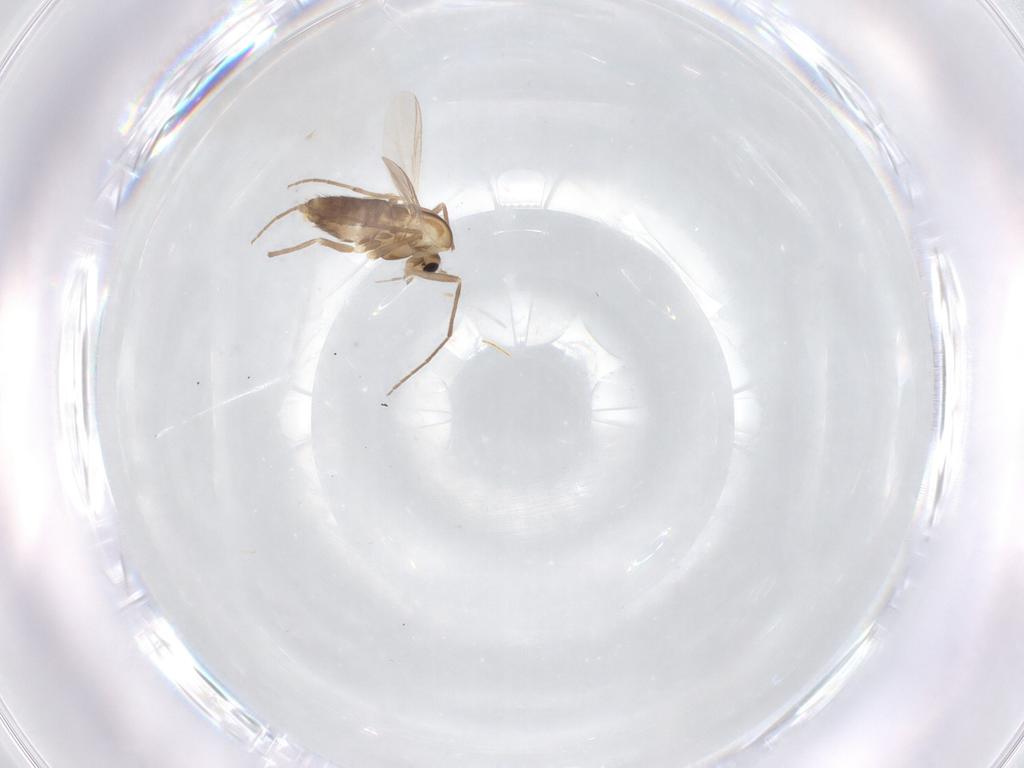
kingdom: Animalia
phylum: Arthropoda
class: Insecta
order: Diptera
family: Chironomidae
